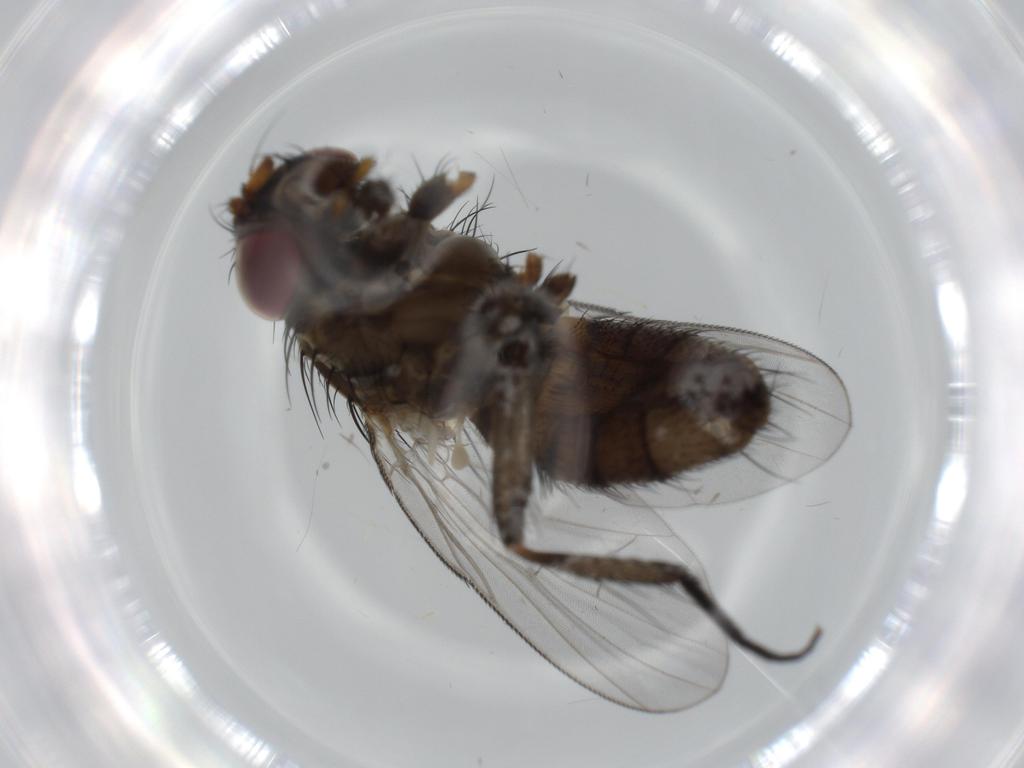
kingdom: Animalia
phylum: Arthropoda
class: Insecta
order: Diptera
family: Milichiidae
